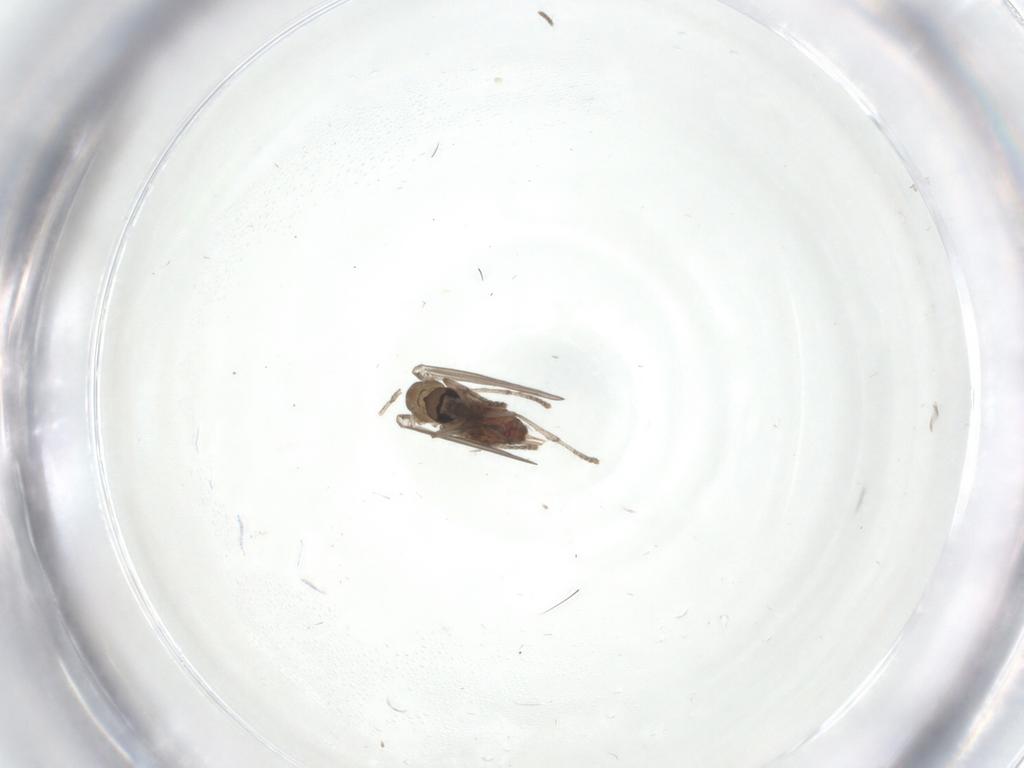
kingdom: Animalia
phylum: Arthropoda
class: Insecta
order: Diptera
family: Psychodidae
